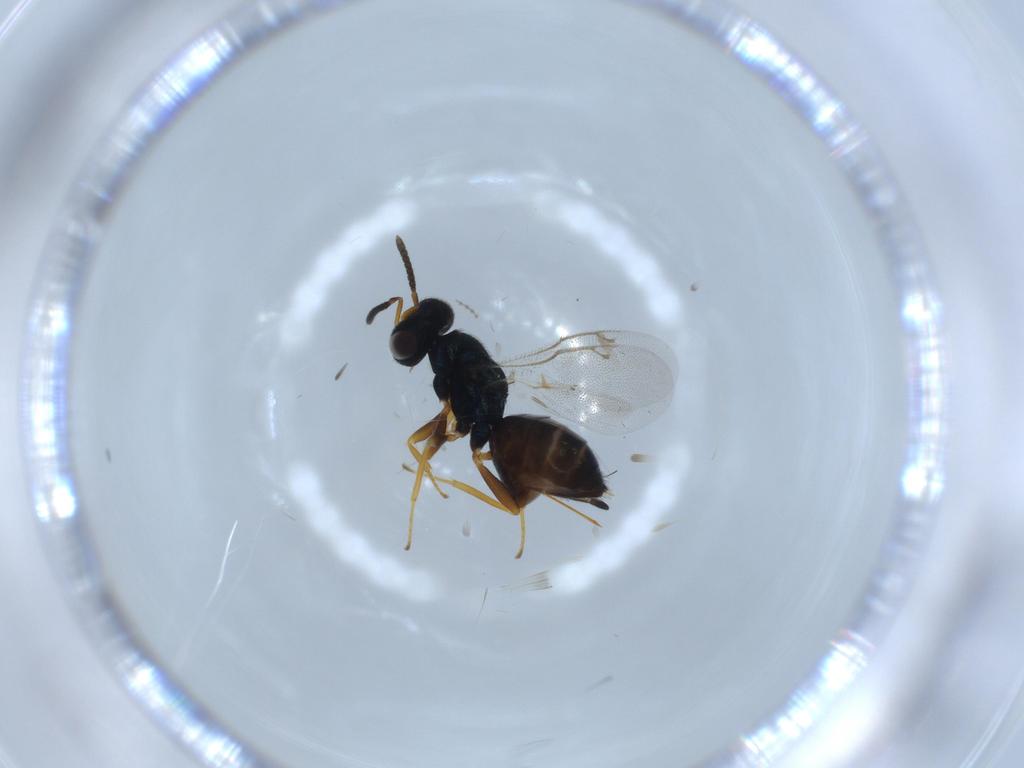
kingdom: Animalia
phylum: Arthropoda
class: Insecta
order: Hymenoptera
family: Pteromalidae
